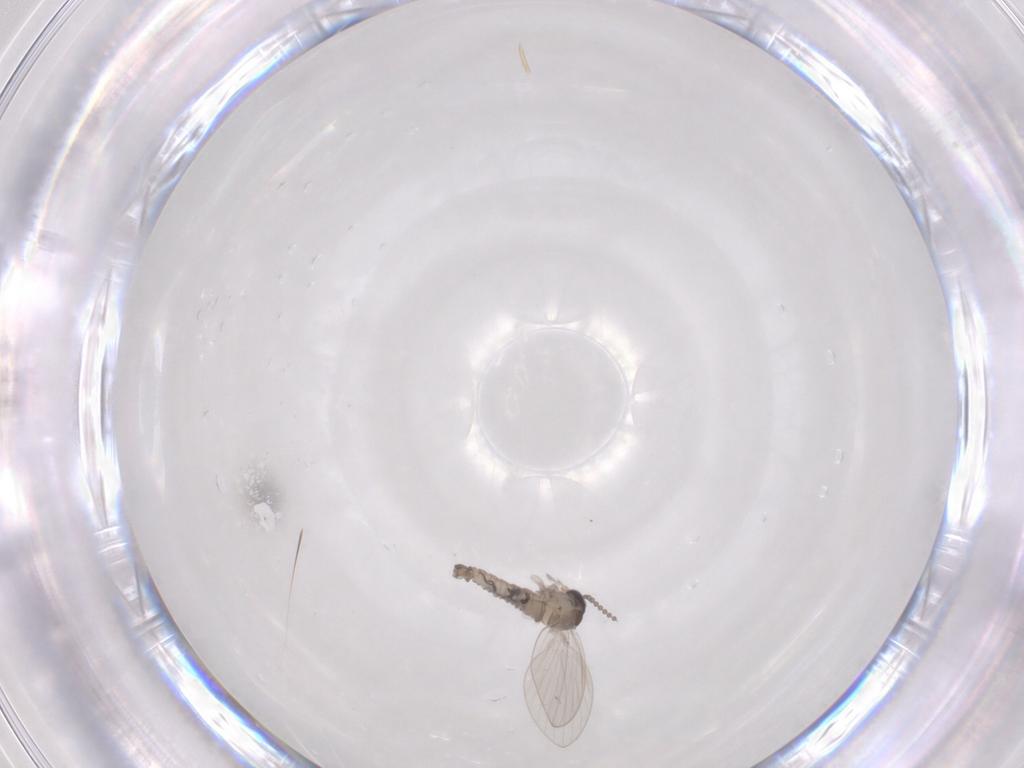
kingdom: Animalia
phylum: Arthropoda
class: Insecta
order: Diptera
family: Ceratopogonidae
